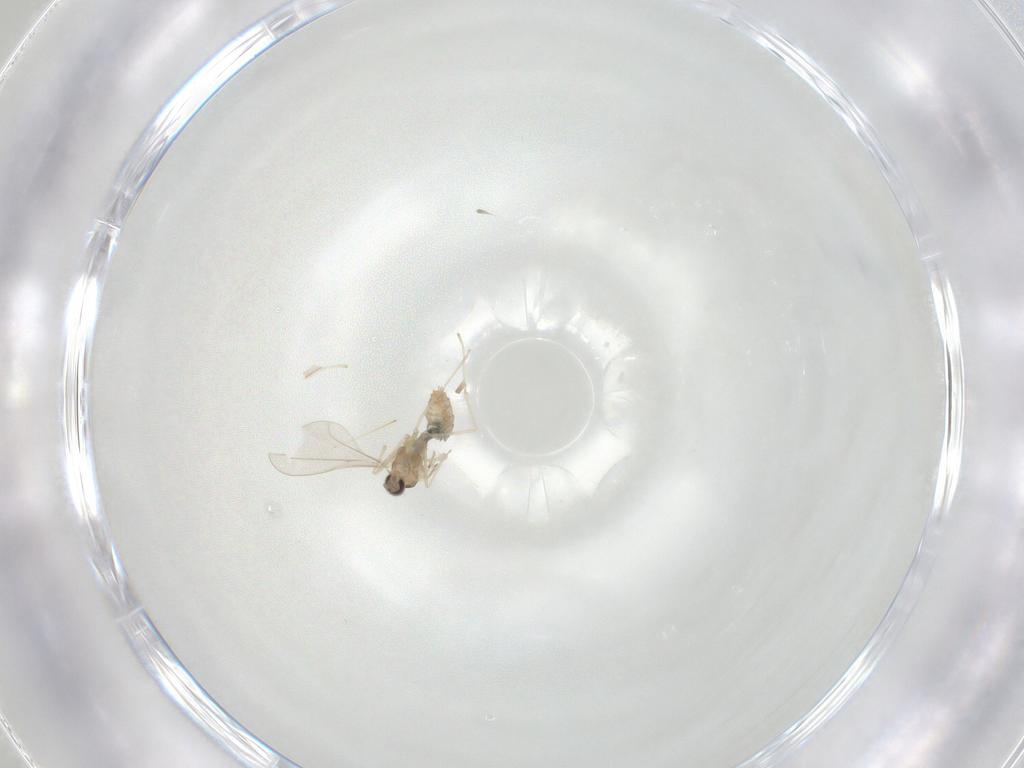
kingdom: Animalia
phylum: Arthropoda
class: Insecta
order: Diptera
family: Cecidomyiidae
